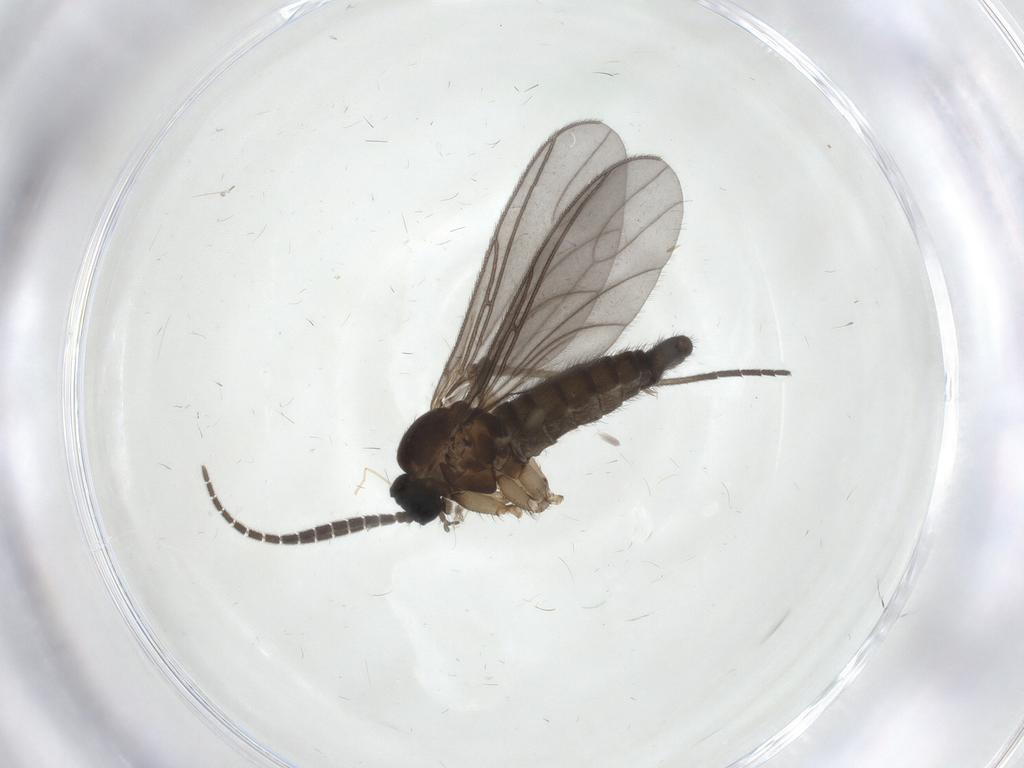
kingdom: Animalia
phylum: Arthropoda
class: Insecta
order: Diptera
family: Sciaridae
